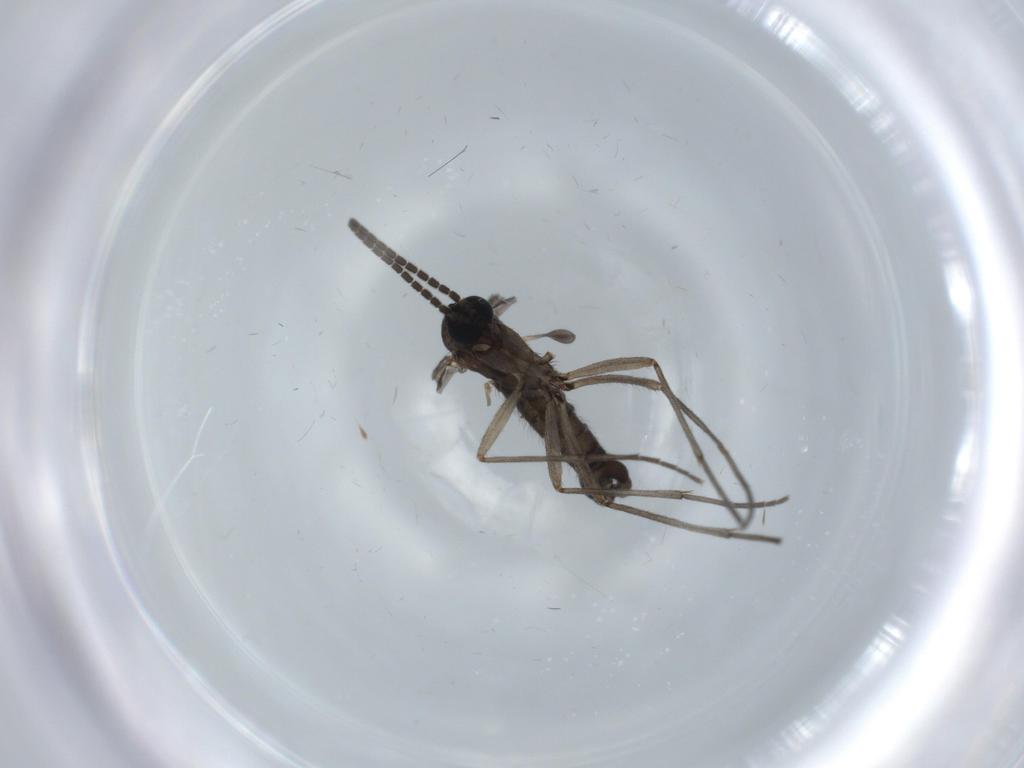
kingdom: Animalia
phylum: Arthropoda
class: Insecta
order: Diptera
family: Sciaridae
